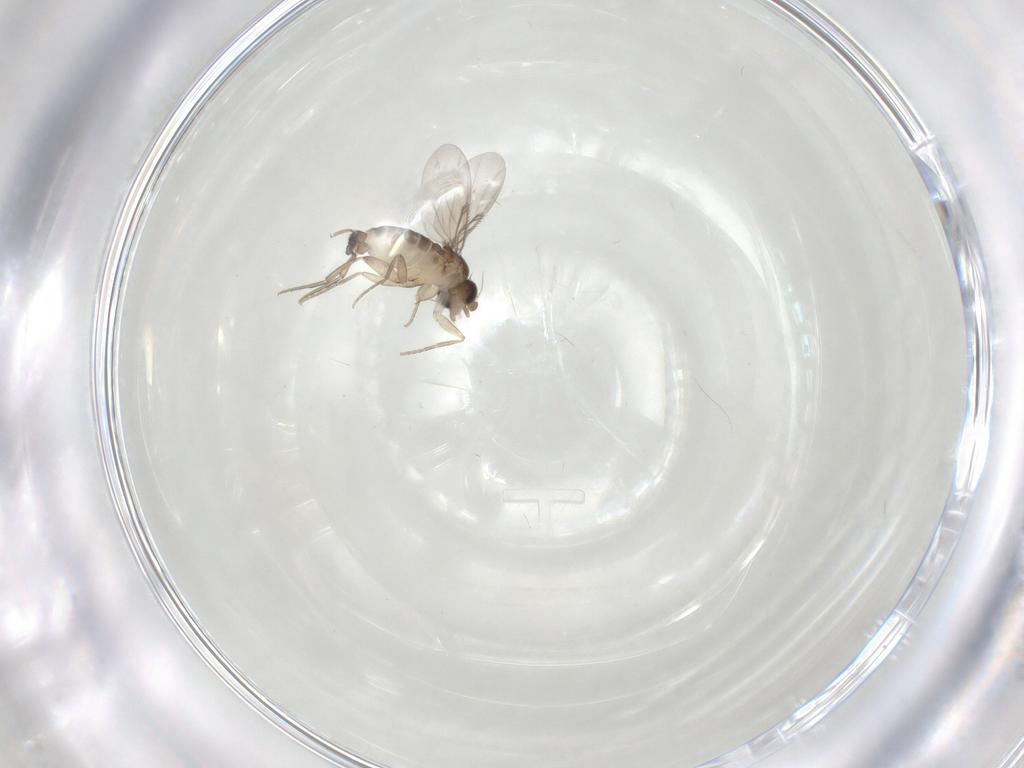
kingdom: Animalia
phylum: Arthropoda
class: Insecta
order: Diptera
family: Phoridae
